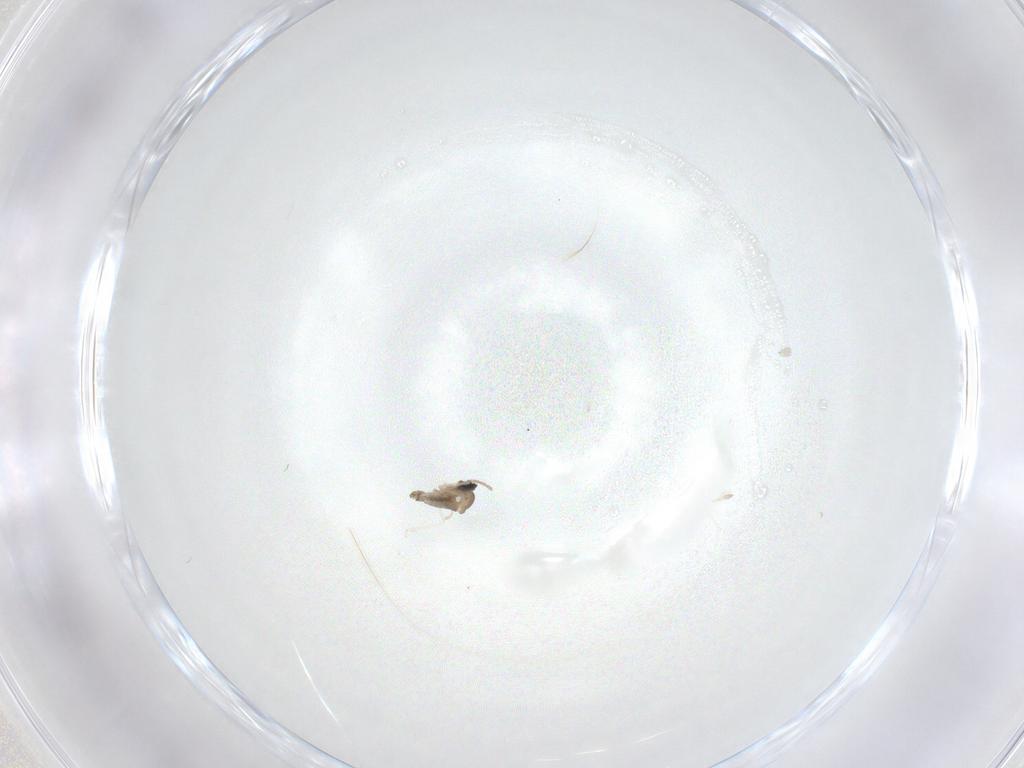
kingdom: Animalia
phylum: Arthropoda
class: Insecta
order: Diptera
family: Cecidomyiidae
